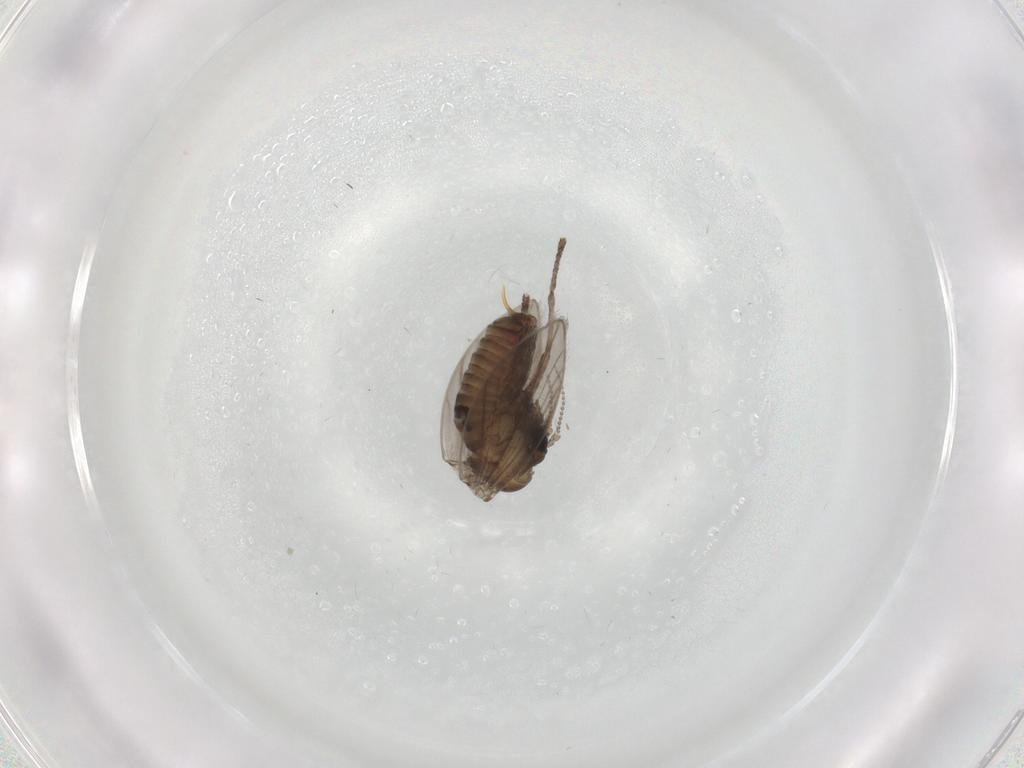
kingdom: Animalia
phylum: Arthropoda
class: Insecta
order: Diptera
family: Psychodidae
